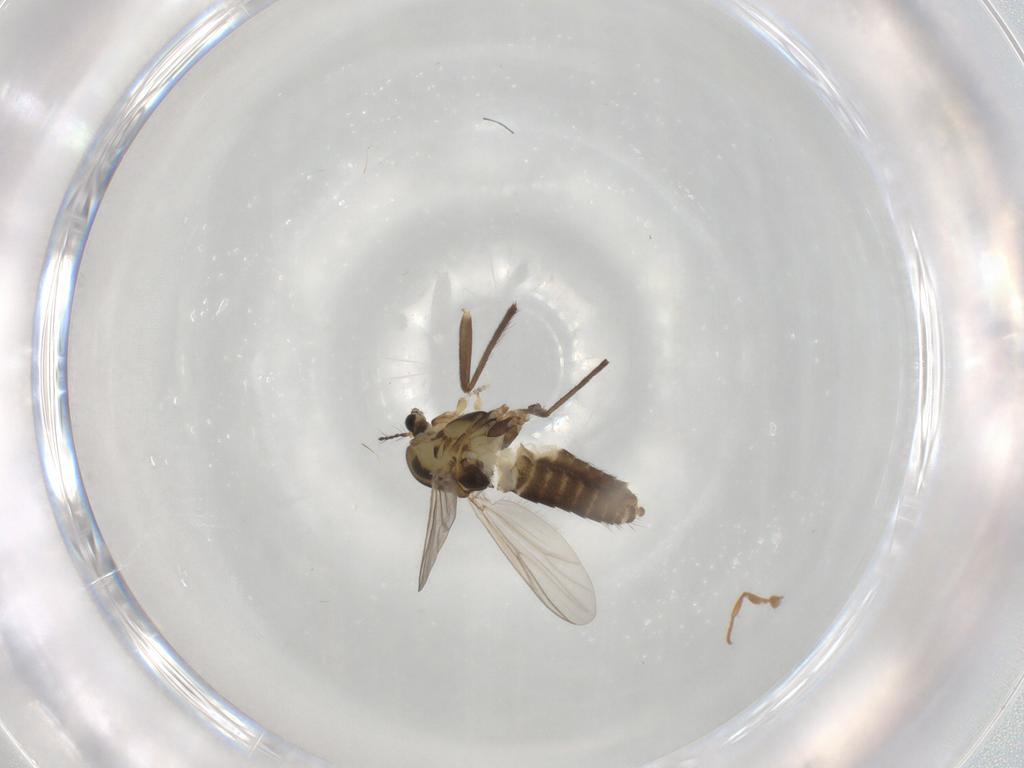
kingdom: Animalia
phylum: Arthropoda
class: Insecta
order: Diptera
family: Chironomidae
